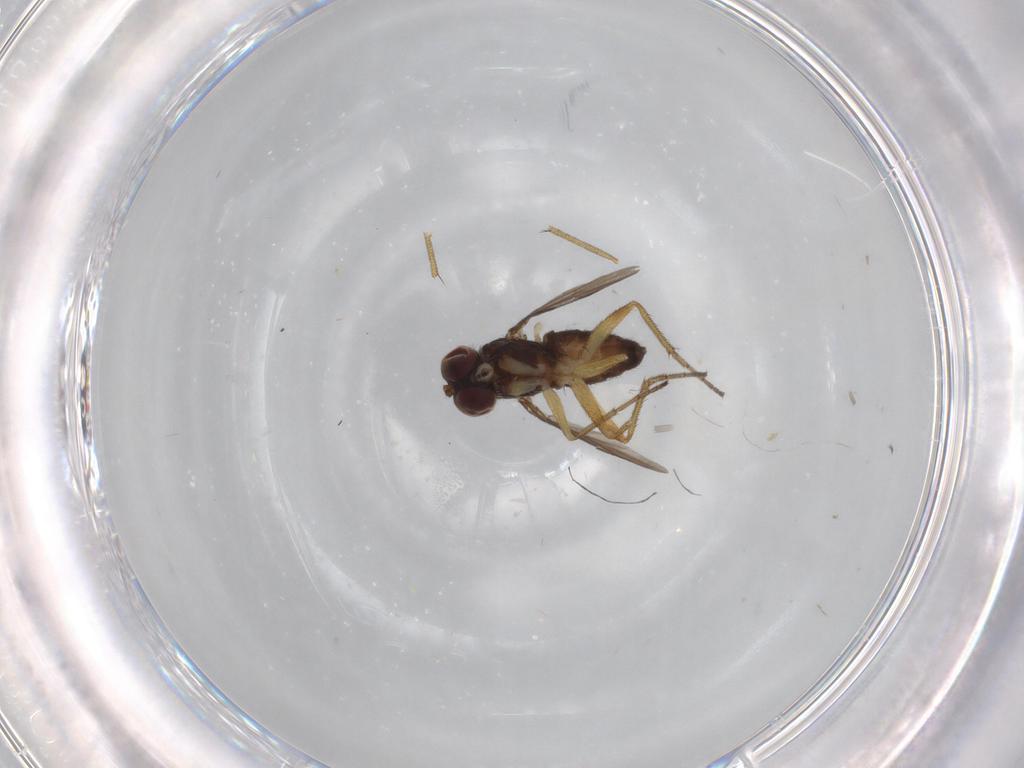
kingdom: Animalia
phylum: Arthropoda
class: Insecta
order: Diptera
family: Dolichopodidae
